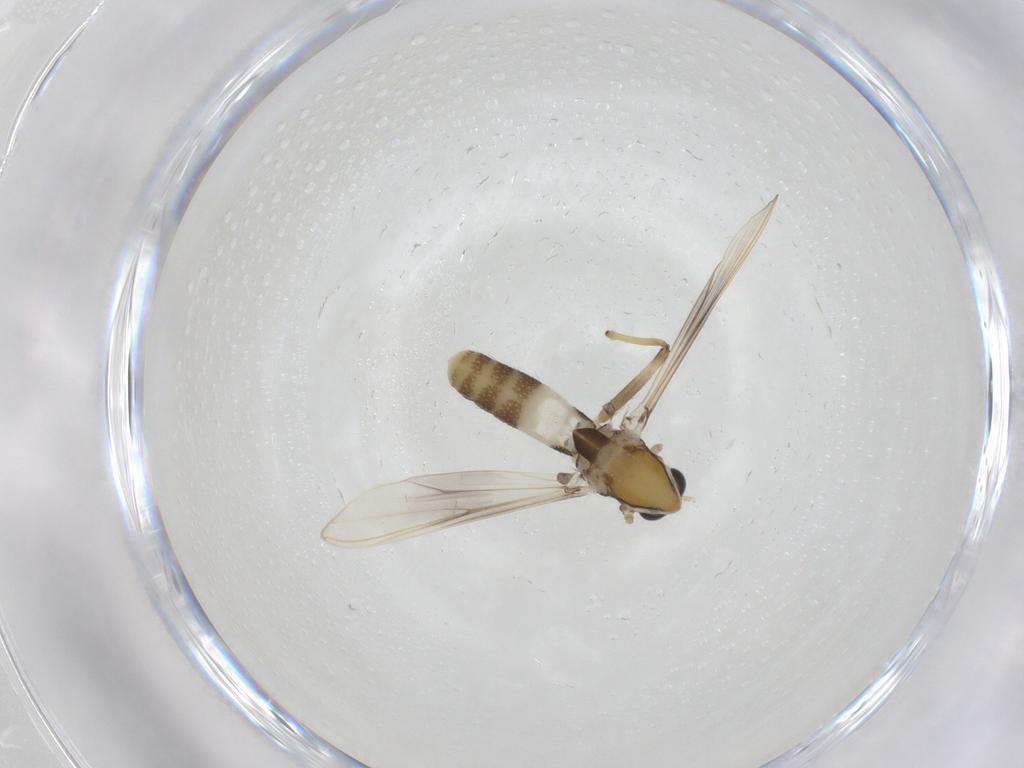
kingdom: Animalia
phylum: Arthropoda
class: Insecta
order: Diptera
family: Chironomidae
